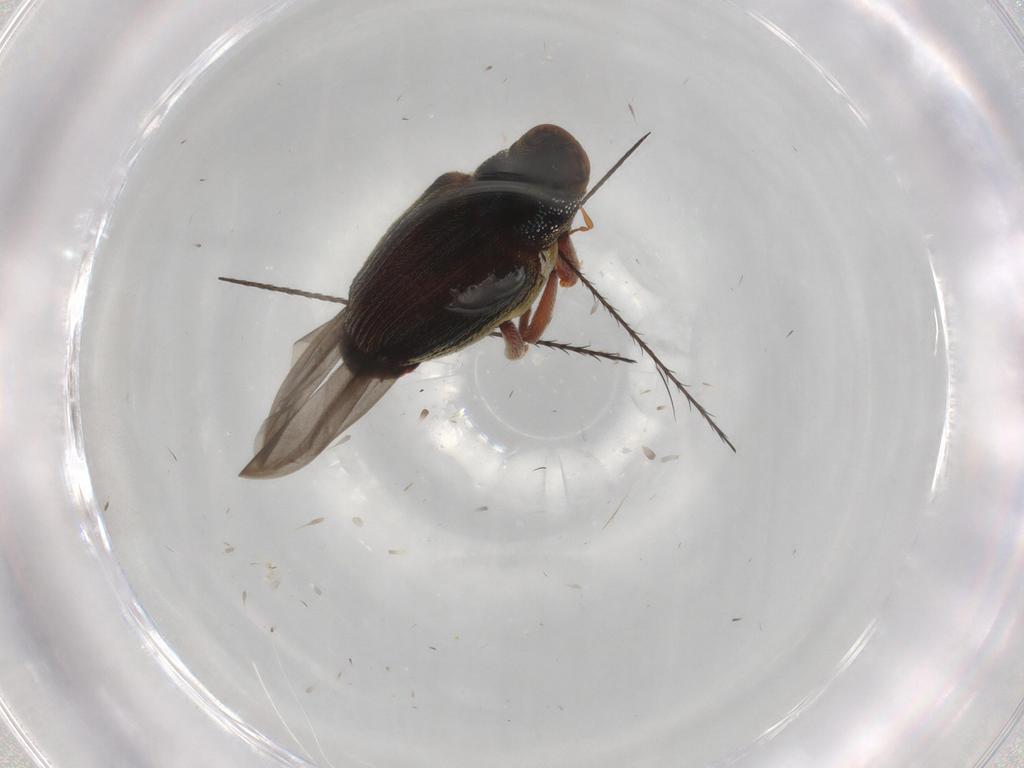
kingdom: Animalia
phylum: Arthropoda
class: Insecta
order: Coleoptera
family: Curculionidae
